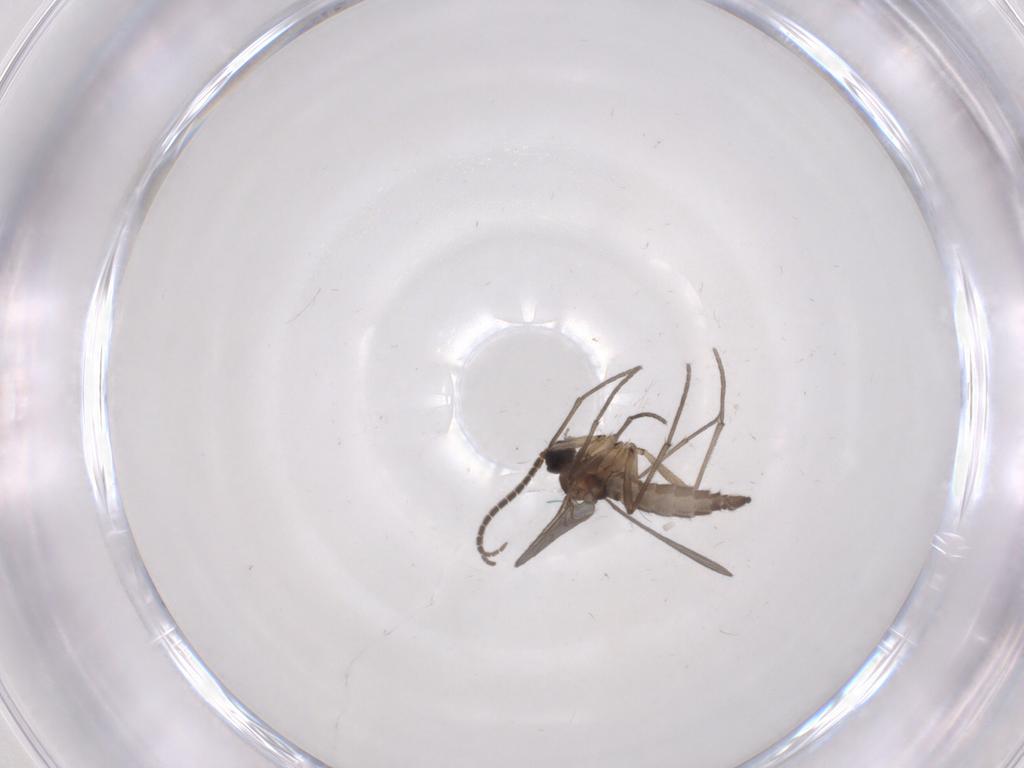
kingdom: Animalia
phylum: Arthropoda
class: Insecta
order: Diptera
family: Sciaridae
